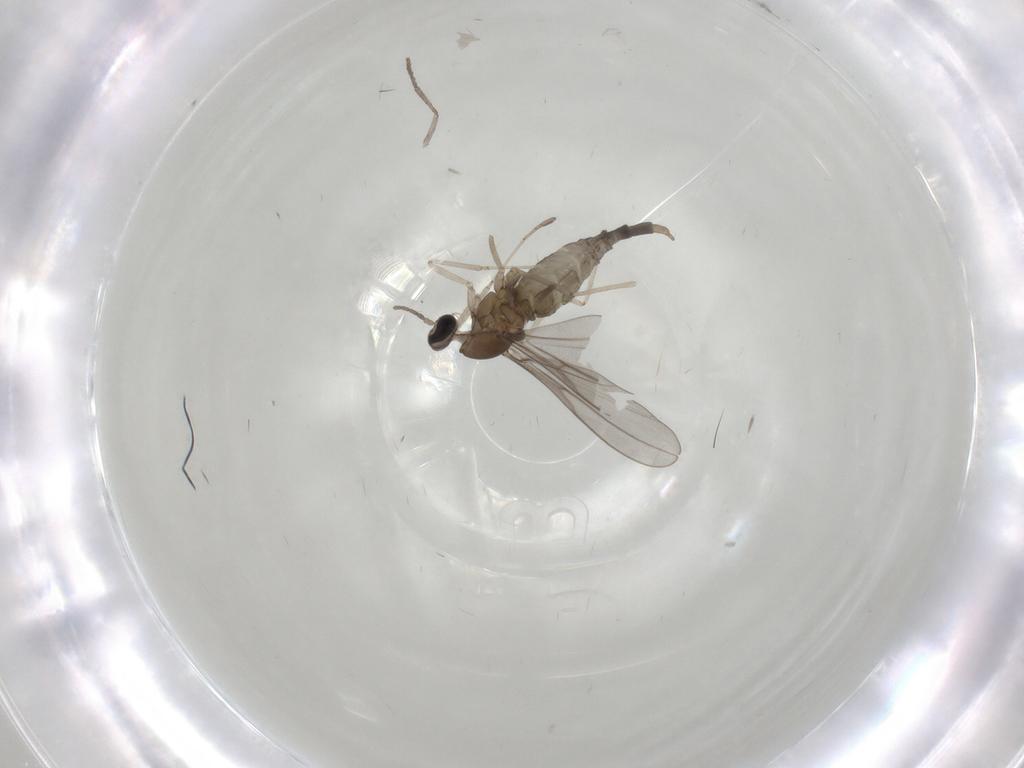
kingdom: Animalia
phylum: Arthropoda
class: Insecta
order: Diptera
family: Psychodidae
